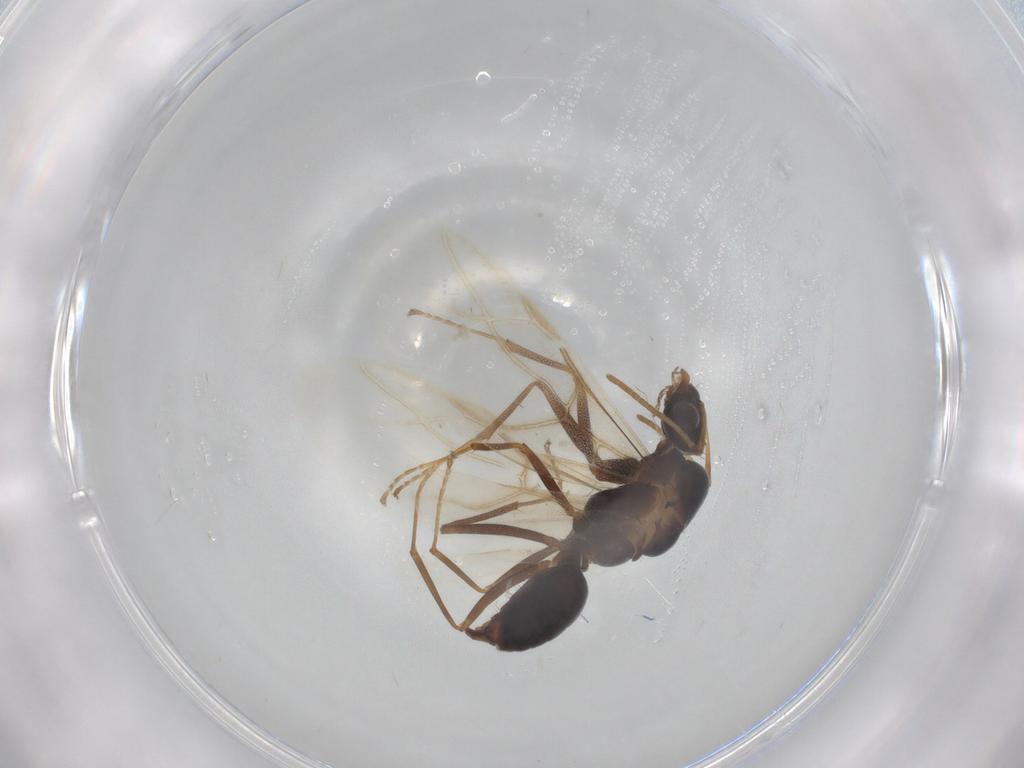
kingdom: Animalia
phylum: Arthropoda
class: Insecta
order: Hymenoptera
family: Formicidae
